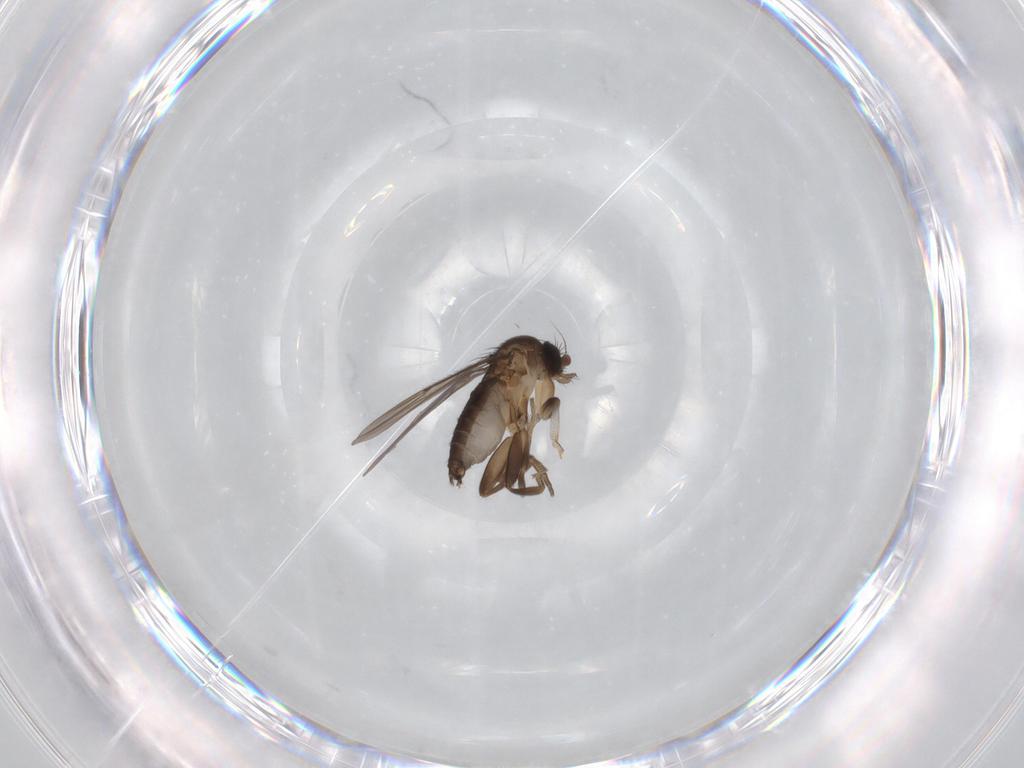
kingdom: Animalia
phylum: Arthropoda
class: Insecta
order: Diptera
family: Phoridae
